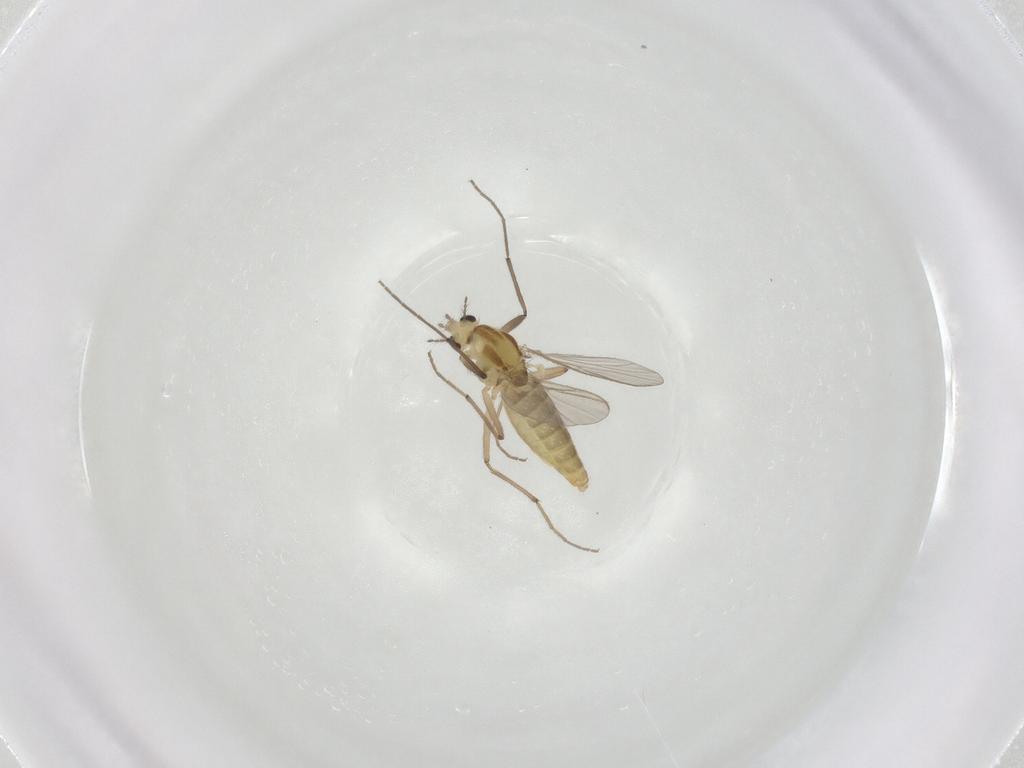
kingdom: Animalia
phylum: Arthropoda
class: Insecta
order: Diptera
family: Chironomidae
